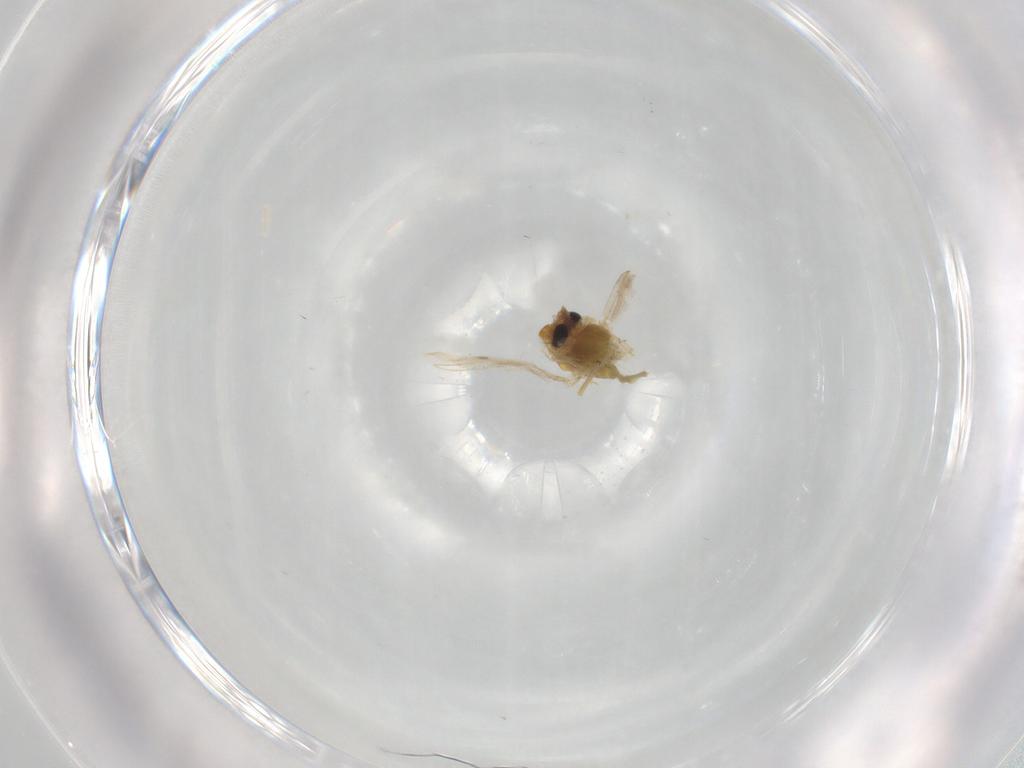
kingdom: Animalia
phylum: Arthropoda
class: Insecta
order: Diptera
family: Chironomidae
